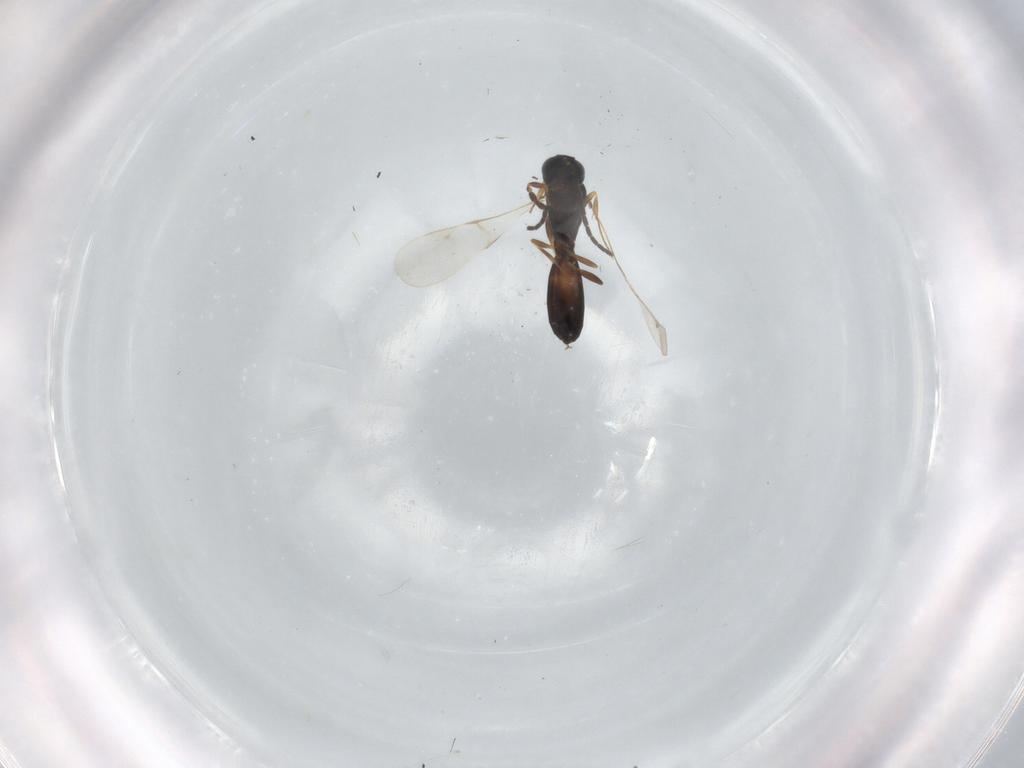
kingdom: Animalia
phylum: Arthropoda
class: Insecta
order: Hymenoptera
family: Scelionidae
